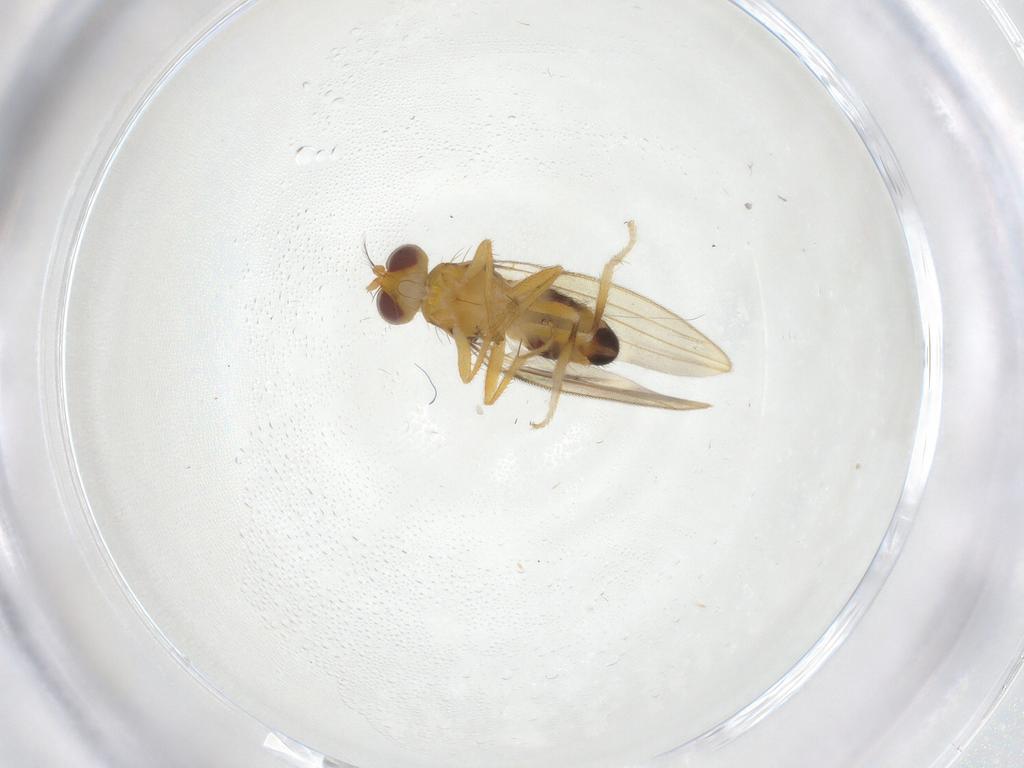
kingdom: Animalia
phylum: Arthropoda
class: Insecta
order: Diptera
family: Periscelididae
